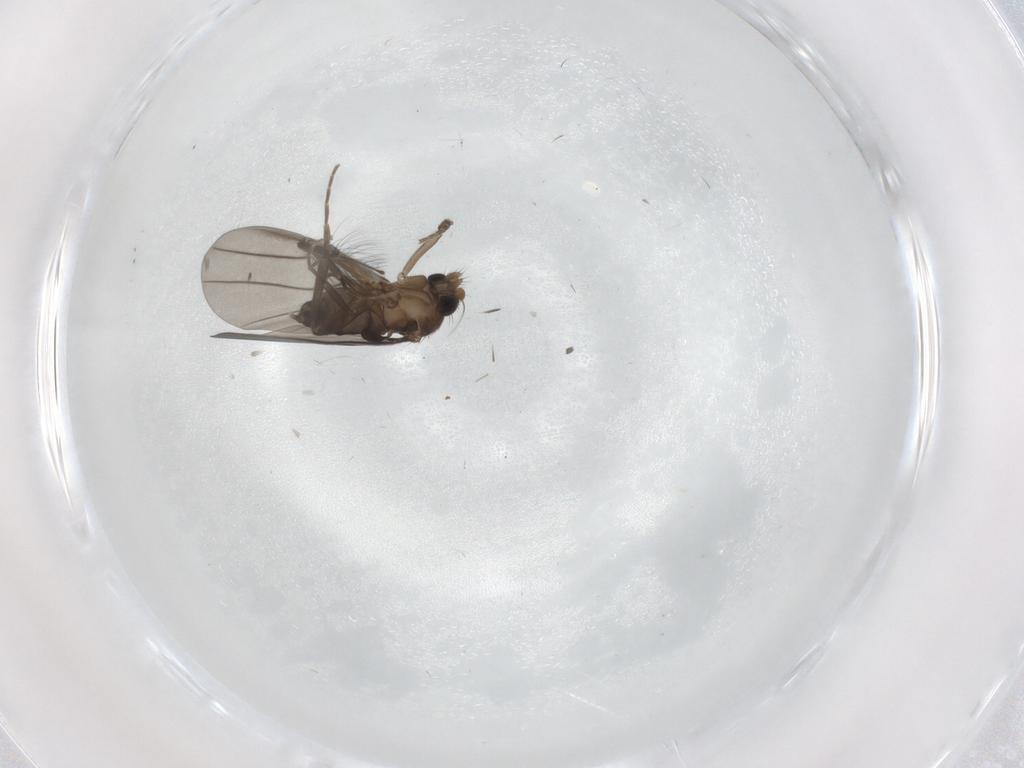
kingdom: Animalia
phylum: Arthropoda
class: Insecta
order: Diptera
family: Phoridae
